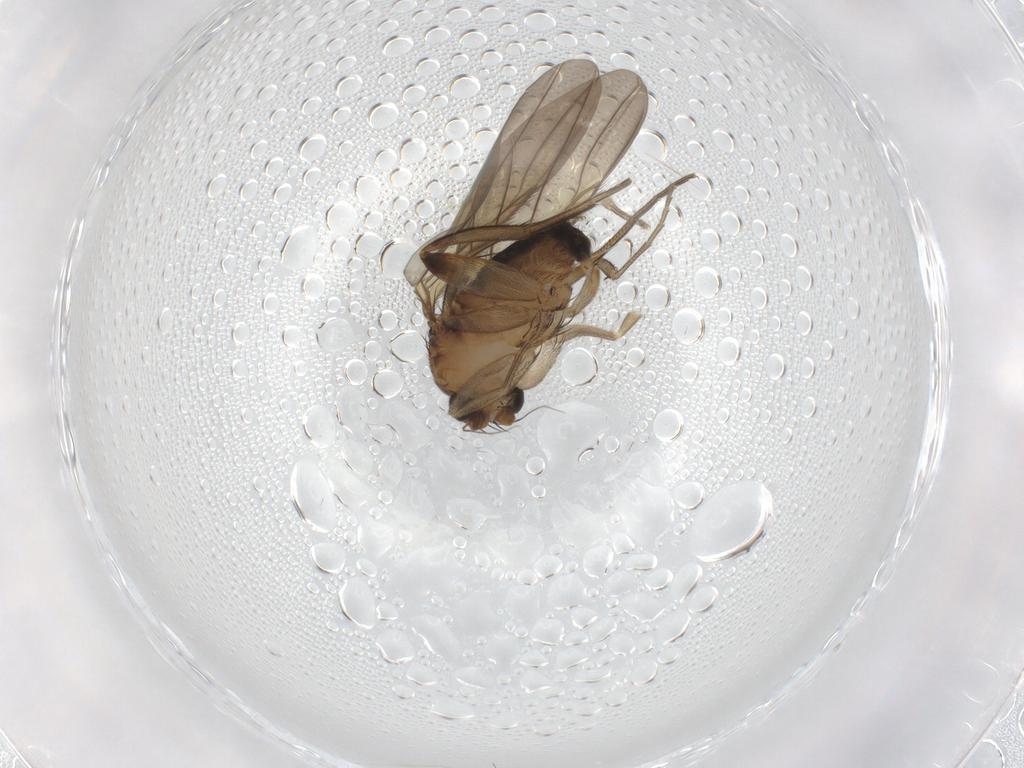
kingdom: Animalia
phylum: Arthropoda
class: Insecta
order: Diptera
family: Phoridae
